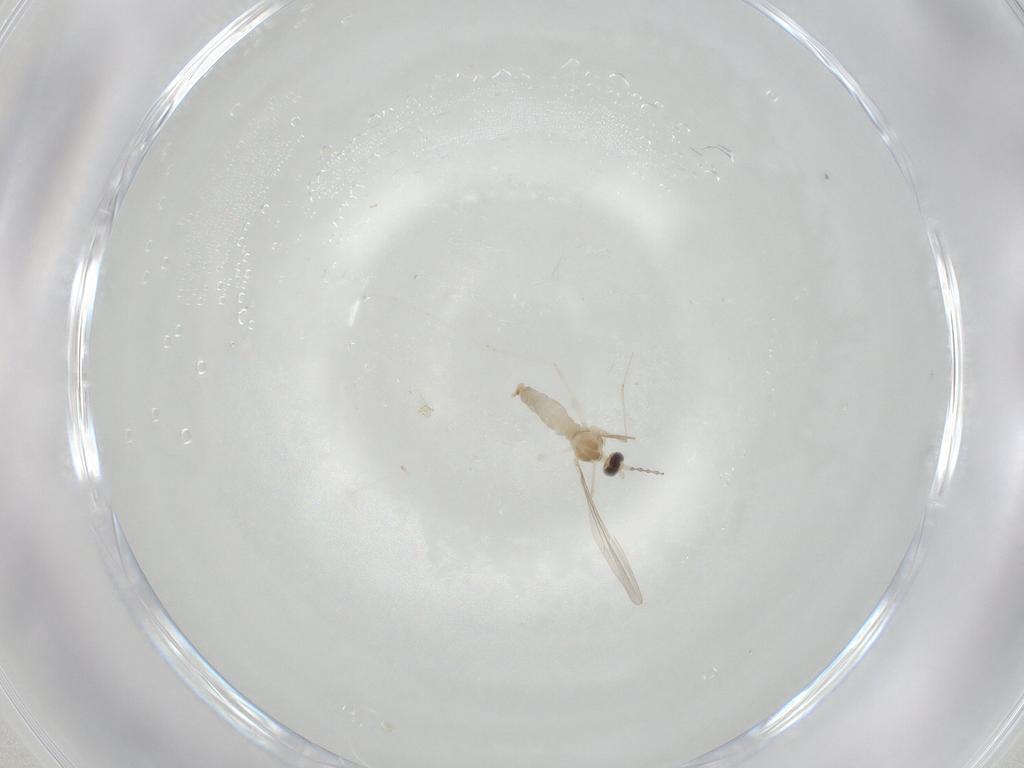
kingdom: Animalia
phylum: Arthropoda
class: Insecta
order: Diptera
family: Cecidomyiidae
